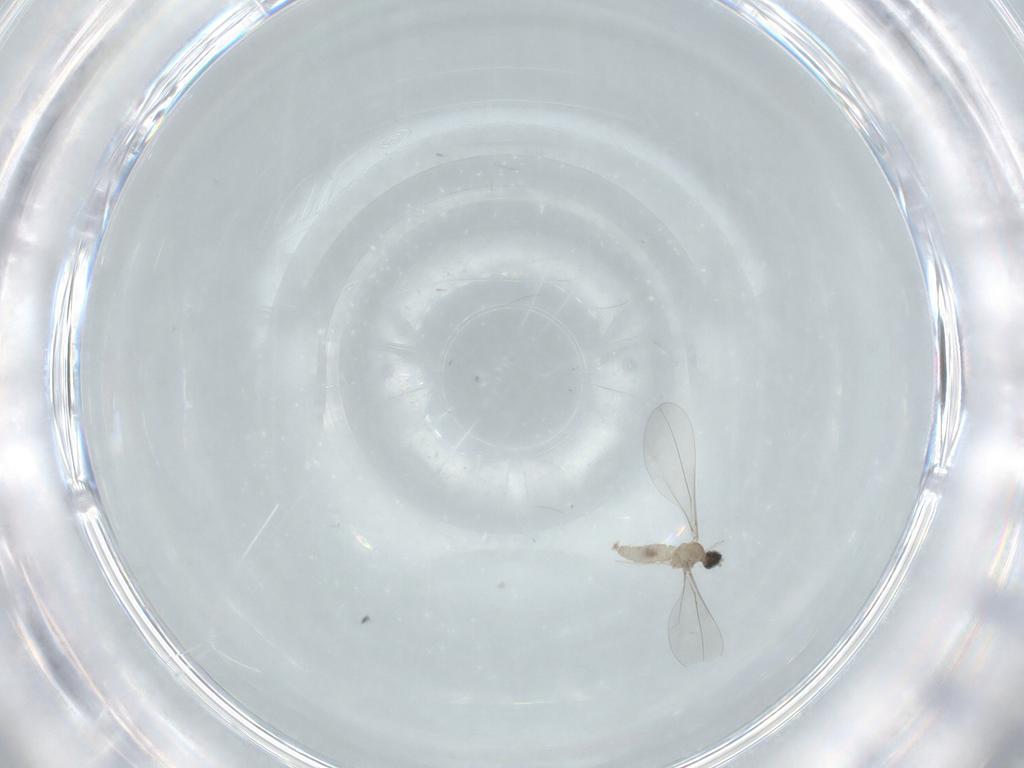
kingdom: Animalia
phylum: Arthropoda
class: Insecta
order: Diptera
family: Cecidomyiidae
